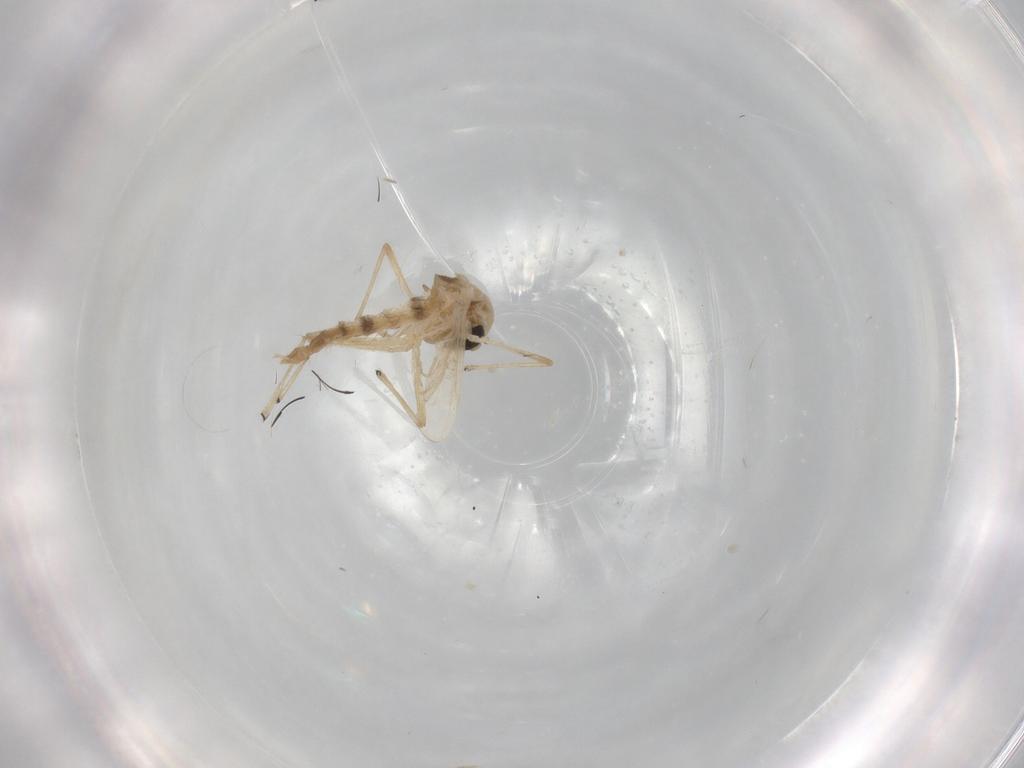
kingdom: Animalia
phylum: Arthropoda
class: Insecta
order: Diptera
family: Chironomidae
